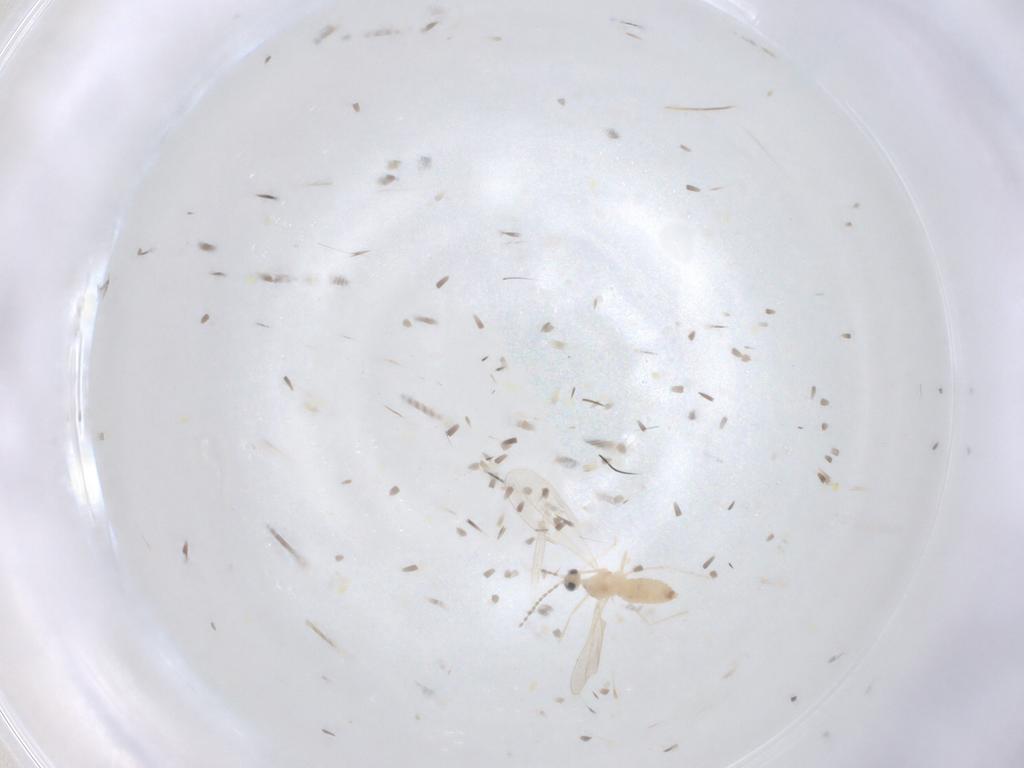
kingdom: Animalia
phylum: Arthropoda
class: Insecta
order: Diptera
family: Cecidomyiidae
